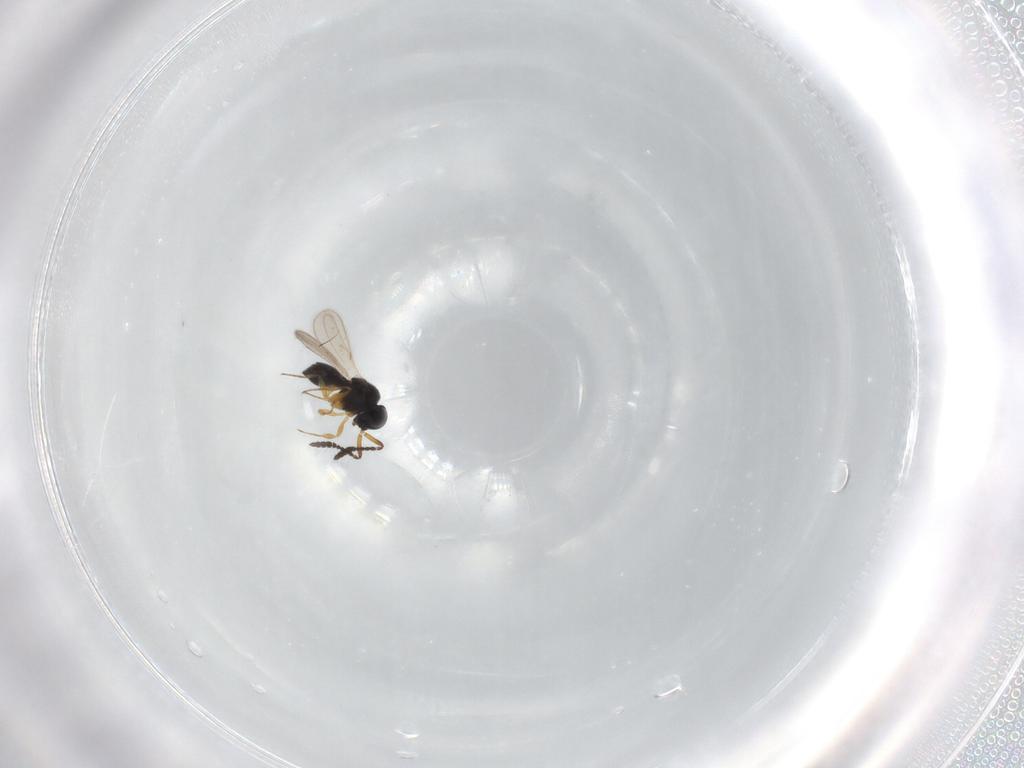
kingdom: Animalia
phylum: Arthropoda
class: Insecta
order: Hymenoptera
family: Scelionidae
